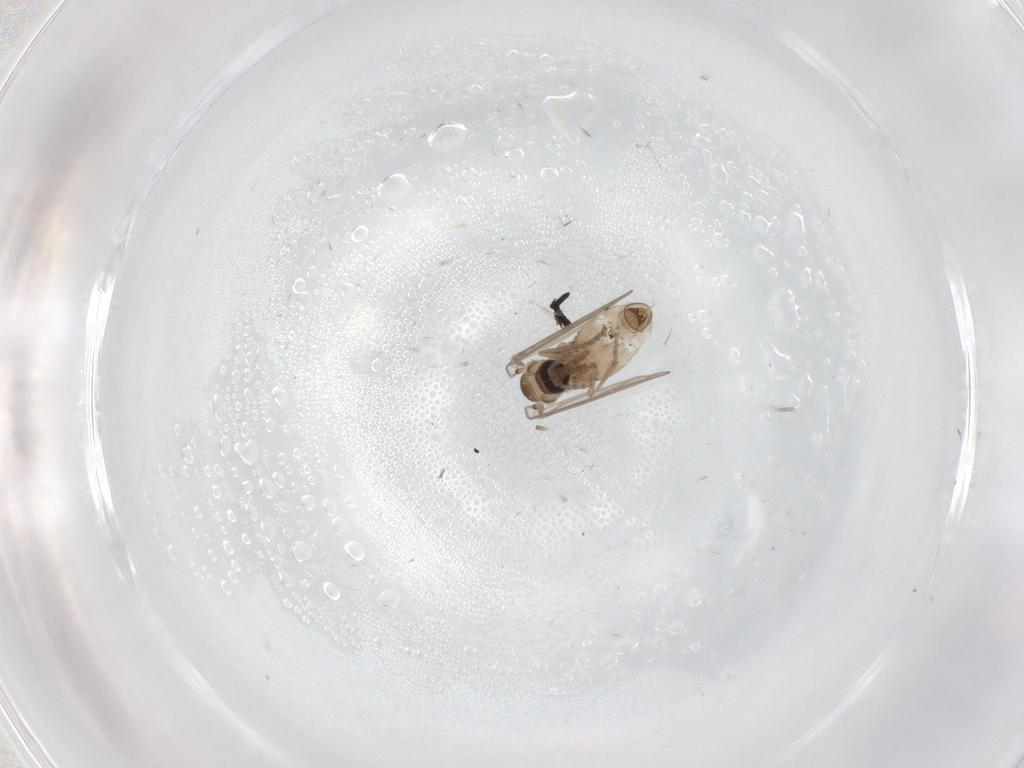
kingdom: Animalia
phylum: Arthropoda
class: Insecta
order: Diptera
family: Psychodidae
